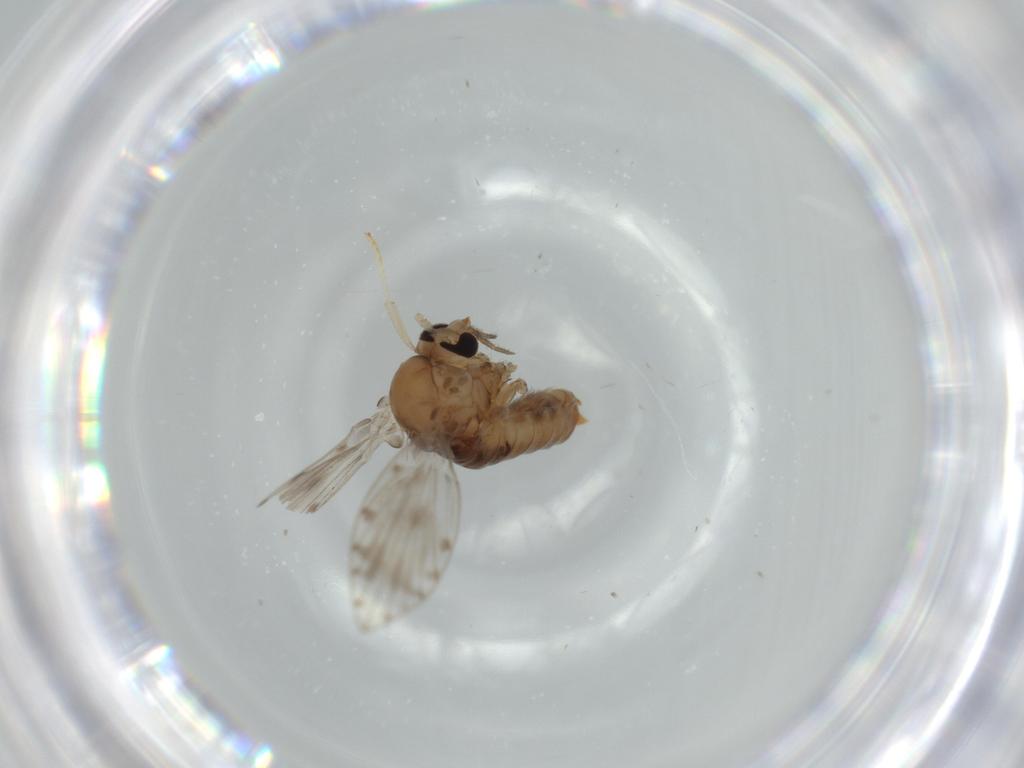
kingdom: Animalia
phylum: Arthropoda
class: Insecta
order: Diptera
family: Psychodidae
